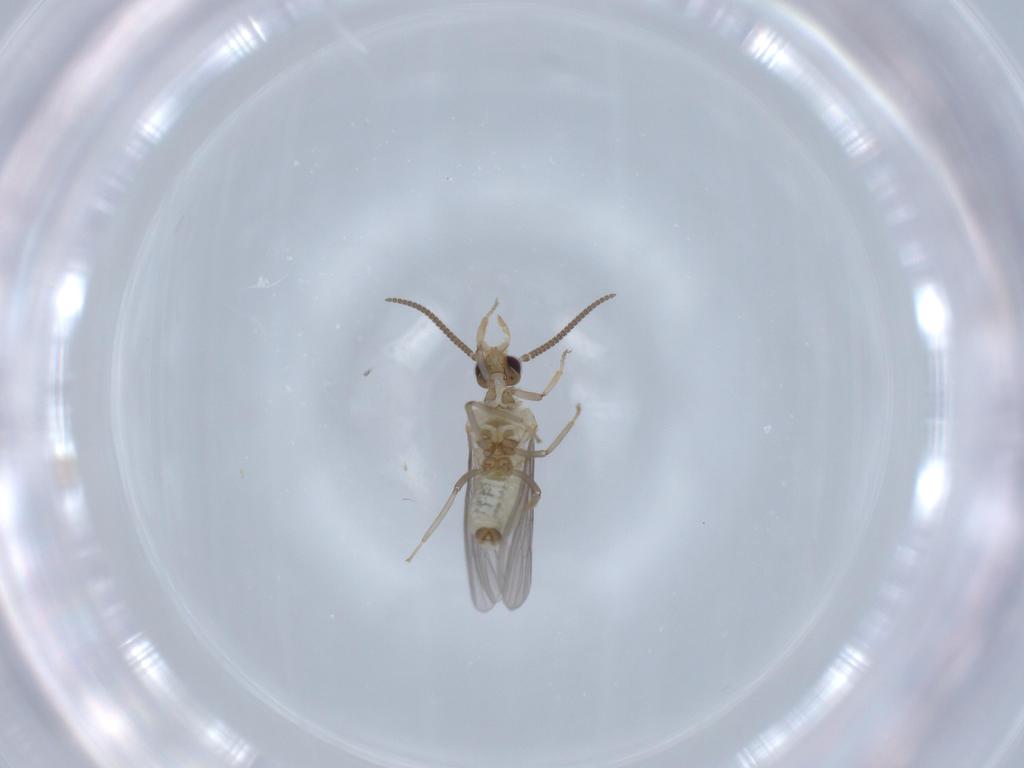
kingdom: Animalia
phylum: Arthropoda
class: Insecta
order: Neuroptera
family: Coniopterygidae
